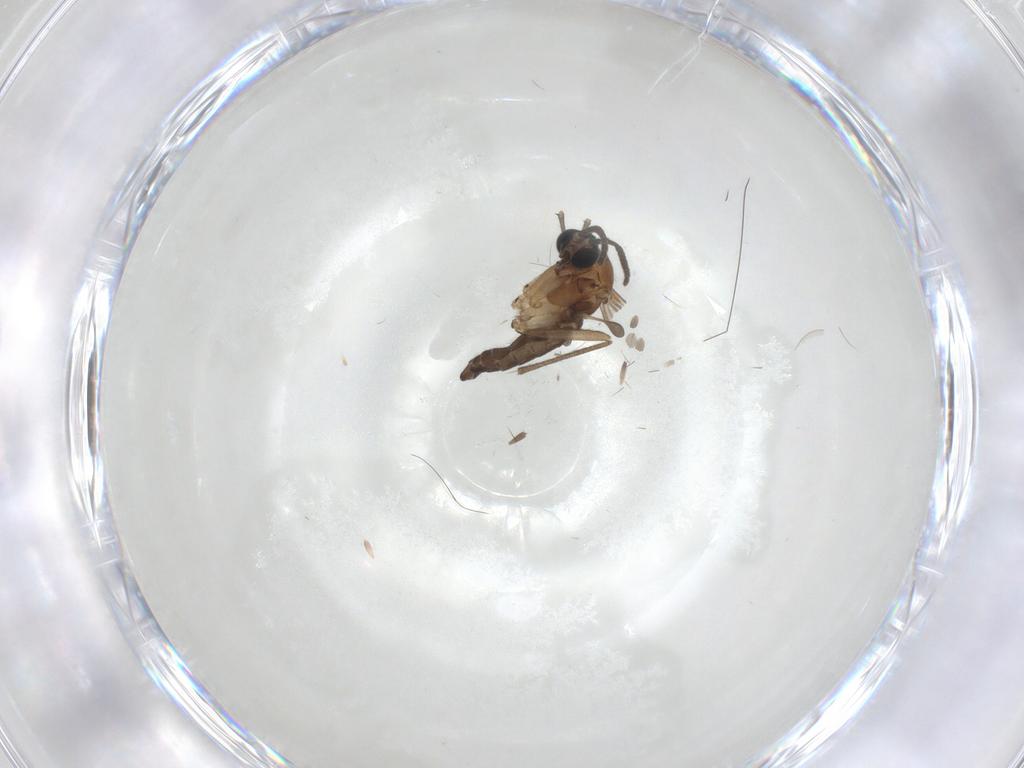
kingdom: Animalia
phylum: Arthropoda
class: Insecta
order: Diptera
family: Sciaridae
